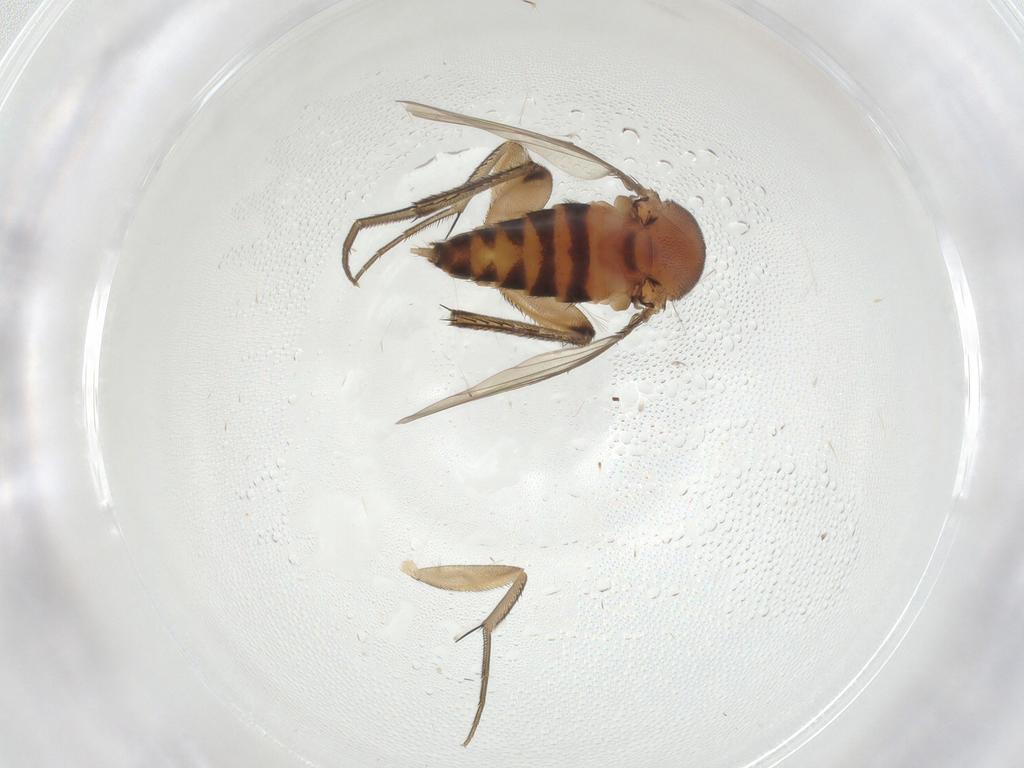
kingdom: Animalia
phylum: Arthropoda
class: Insecta
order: Diptera
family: Phoridae
